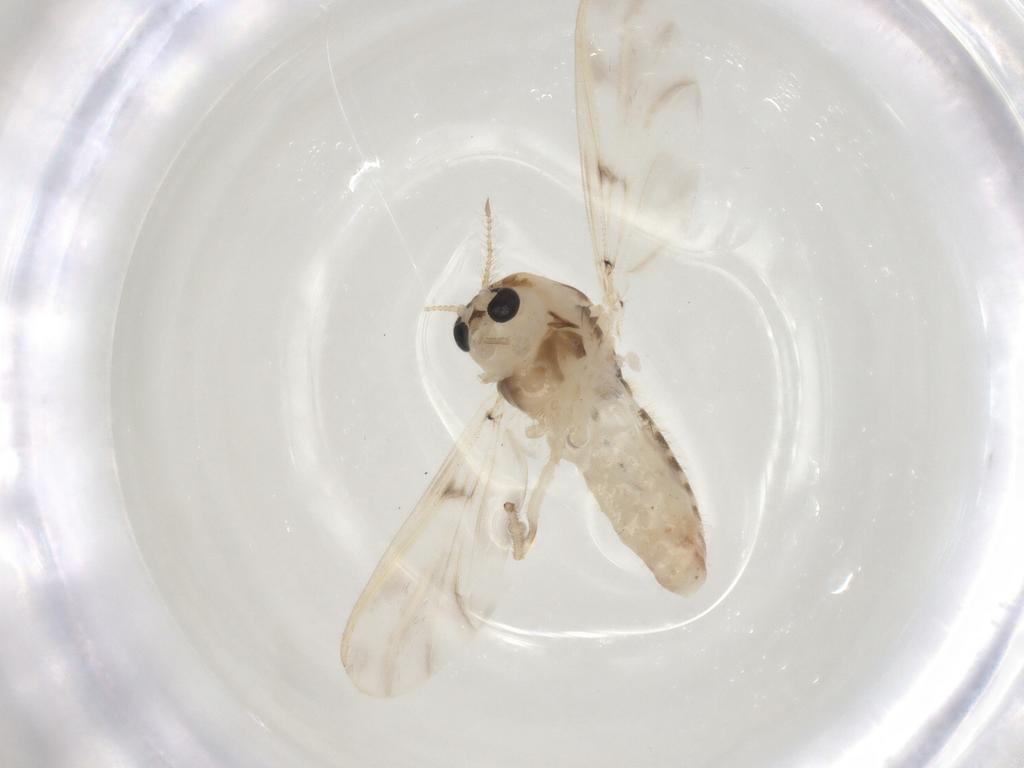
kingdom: Animalia
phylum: Arthropoda
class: Insecta
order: Diptera
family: Chironomidae
